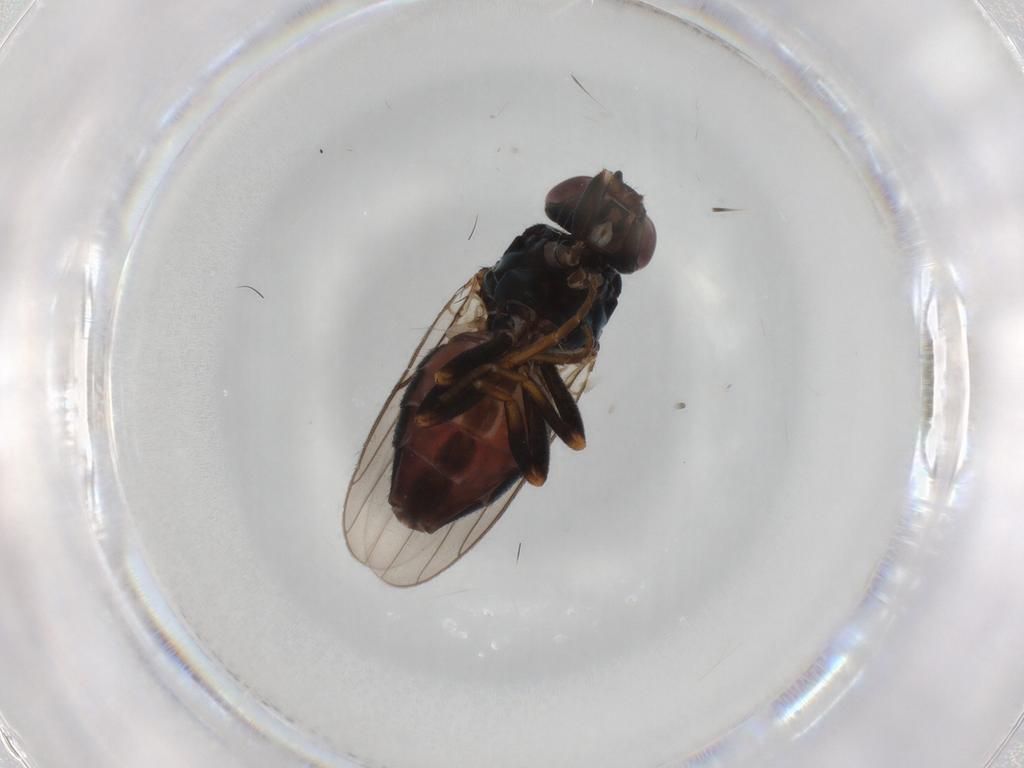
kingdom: Animalia
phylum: Arthropoda
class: Insecta
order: Diptera
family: Chloropidae
